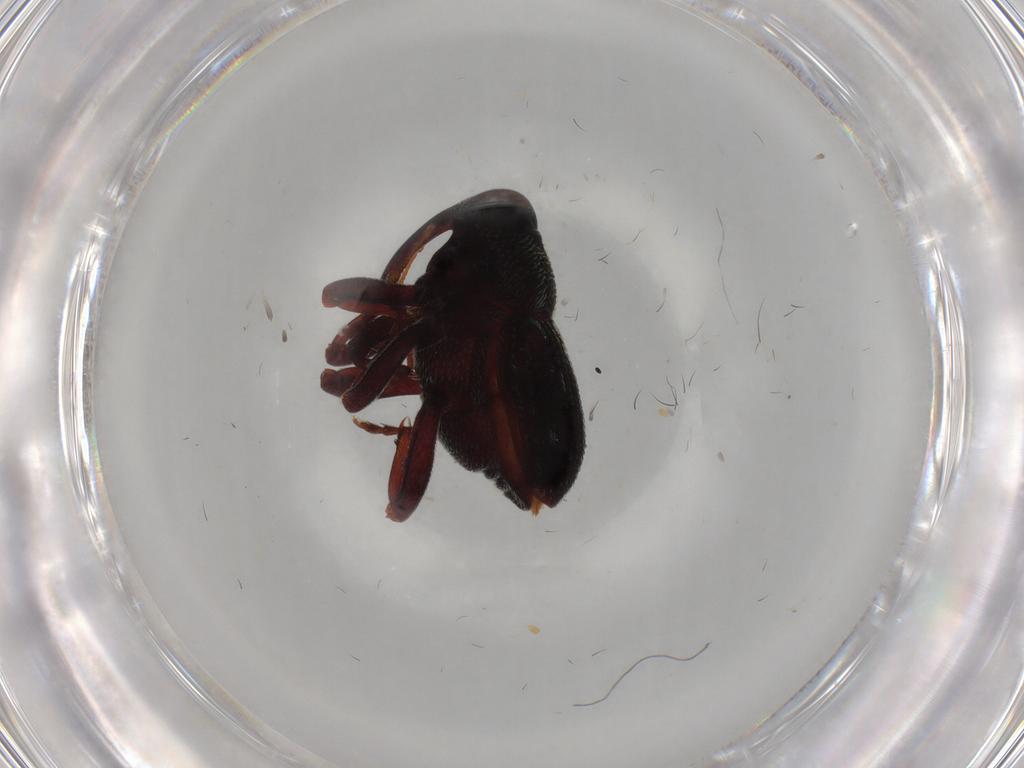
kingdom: Animalia
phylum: Arthropoda
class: Insecta
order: Coleoptera
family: Curculionidae
